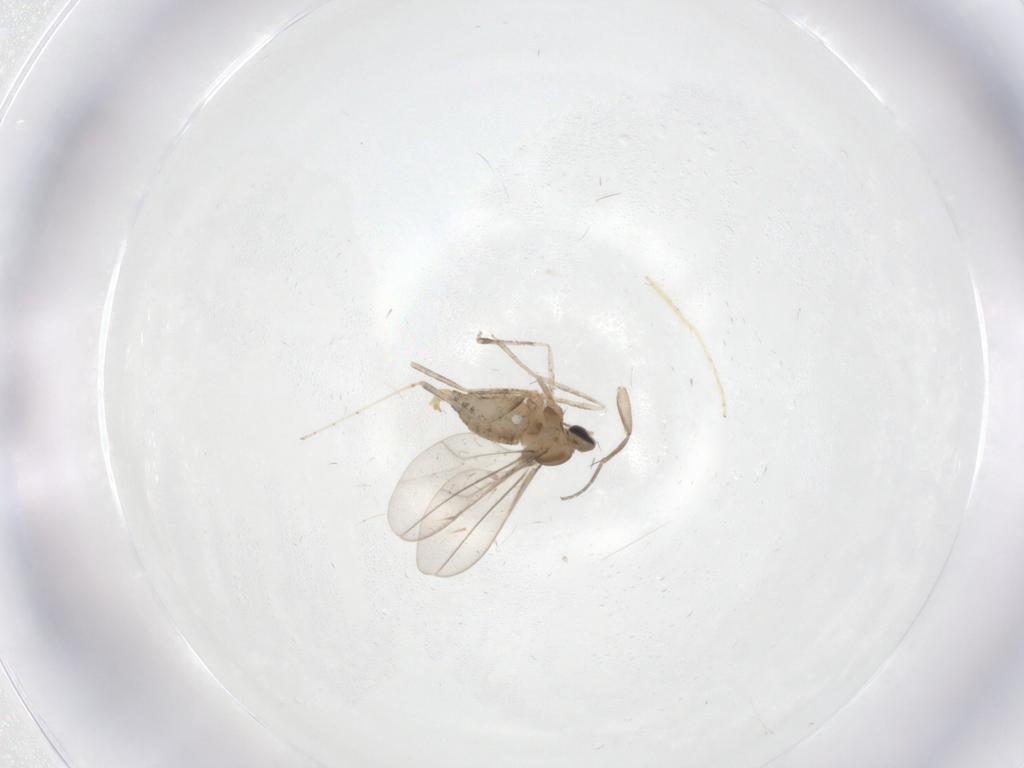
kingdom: Animalia
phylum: Arthropoda
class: Insecta
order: Diptera
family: Chironomidae
